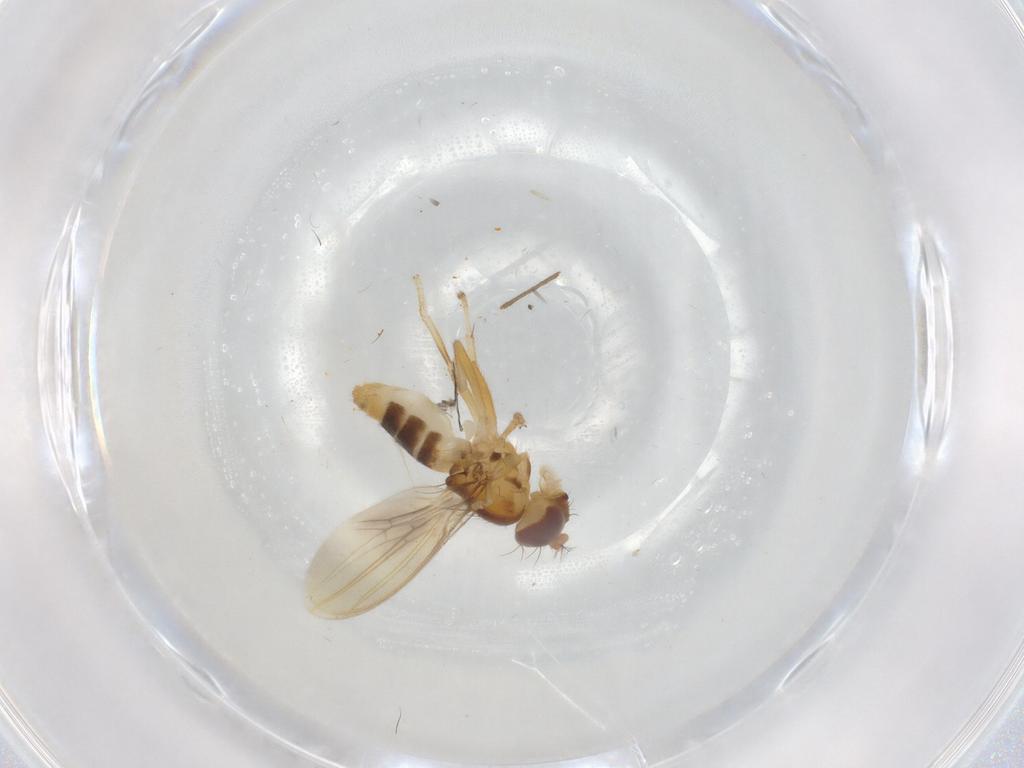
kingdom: Animalia
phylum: Arthropoda
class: Insecta
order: Diptera
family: Periscelididae
